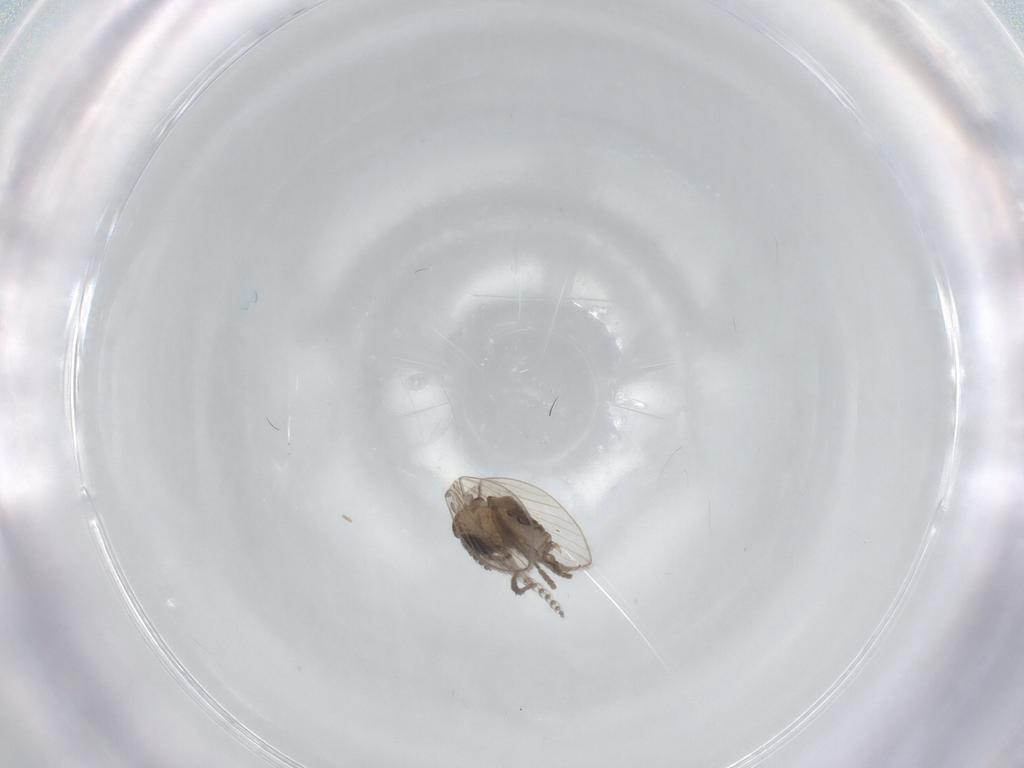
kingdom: Animalia
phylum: Arthropoda
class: Insecta
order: Diptera
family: Psychodidae
